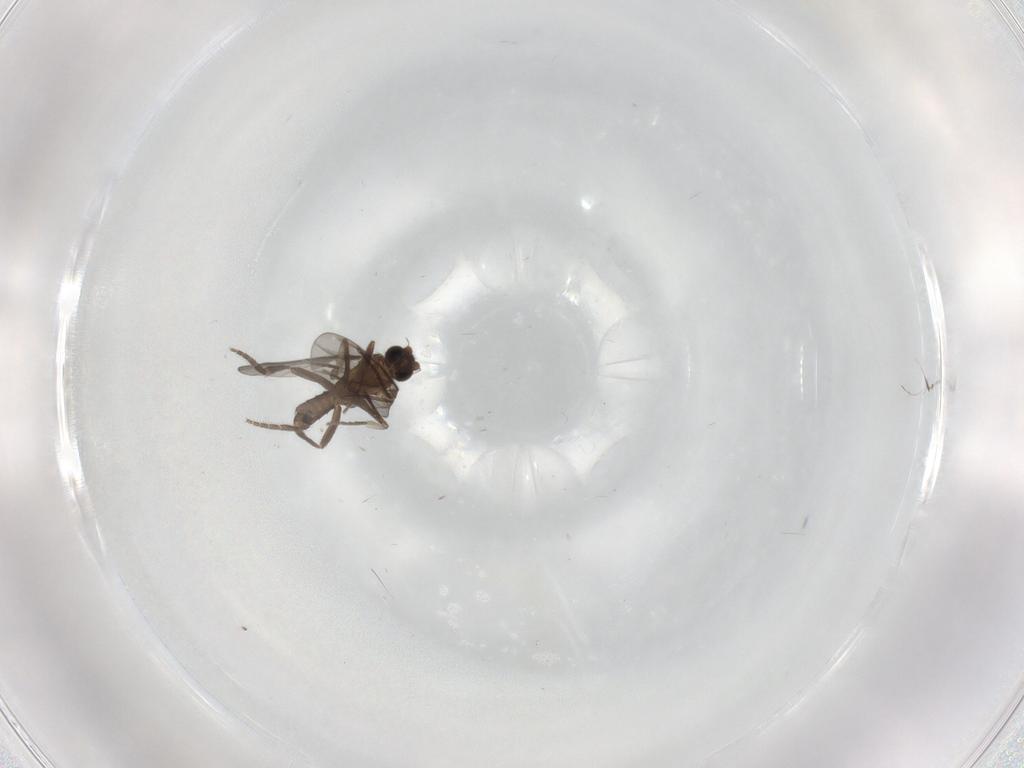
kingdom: Animalia
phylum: Arthropoda
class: Insecta
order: Diptera
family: Phoridae
